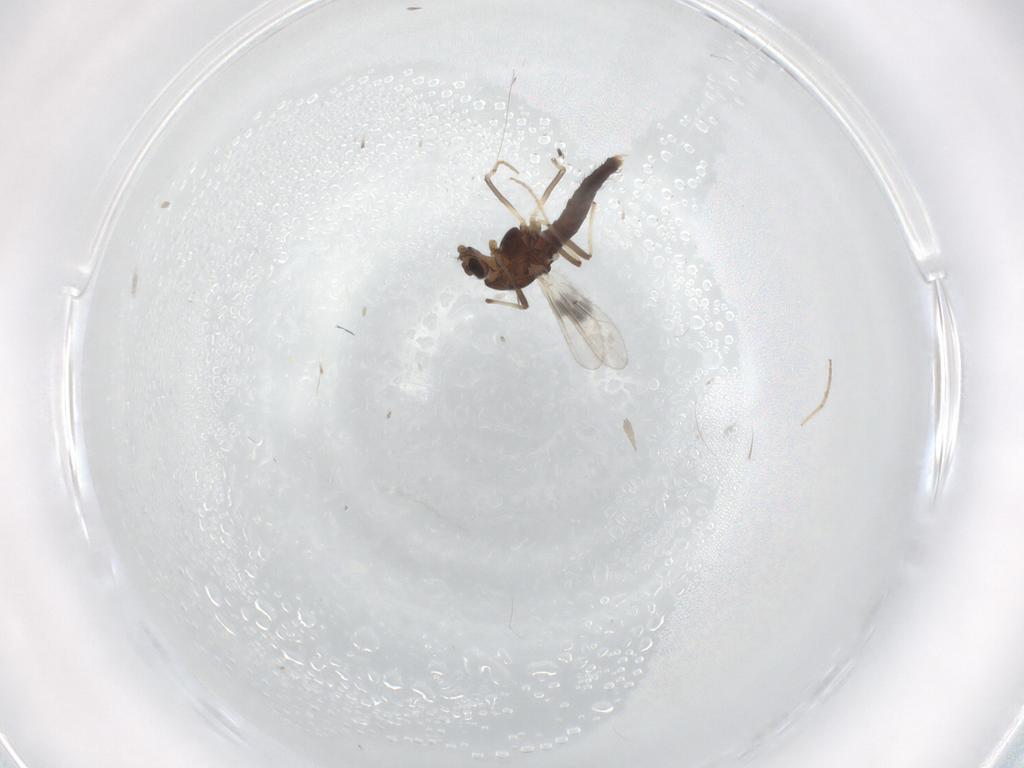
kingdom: Animalia
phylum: Arthropoda
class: Insecta
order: Diptera
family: Chironomidae
